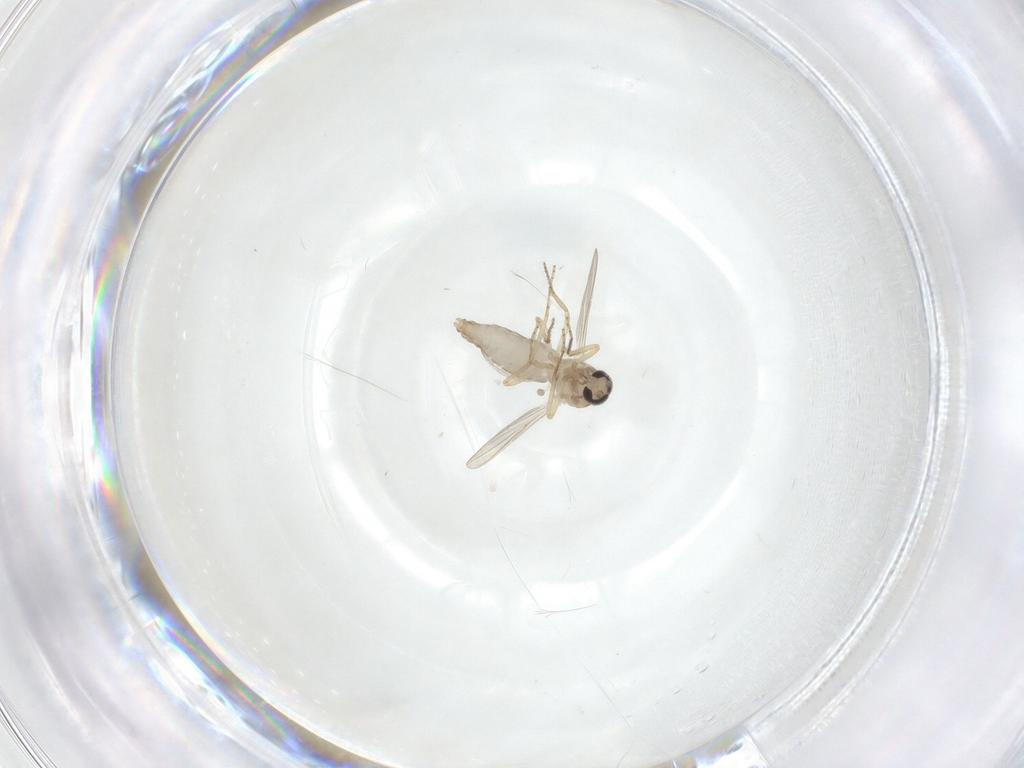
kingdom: Animalia
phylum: Arthropoda
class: Insecta
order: Diptera
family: Ceratopogonidae
